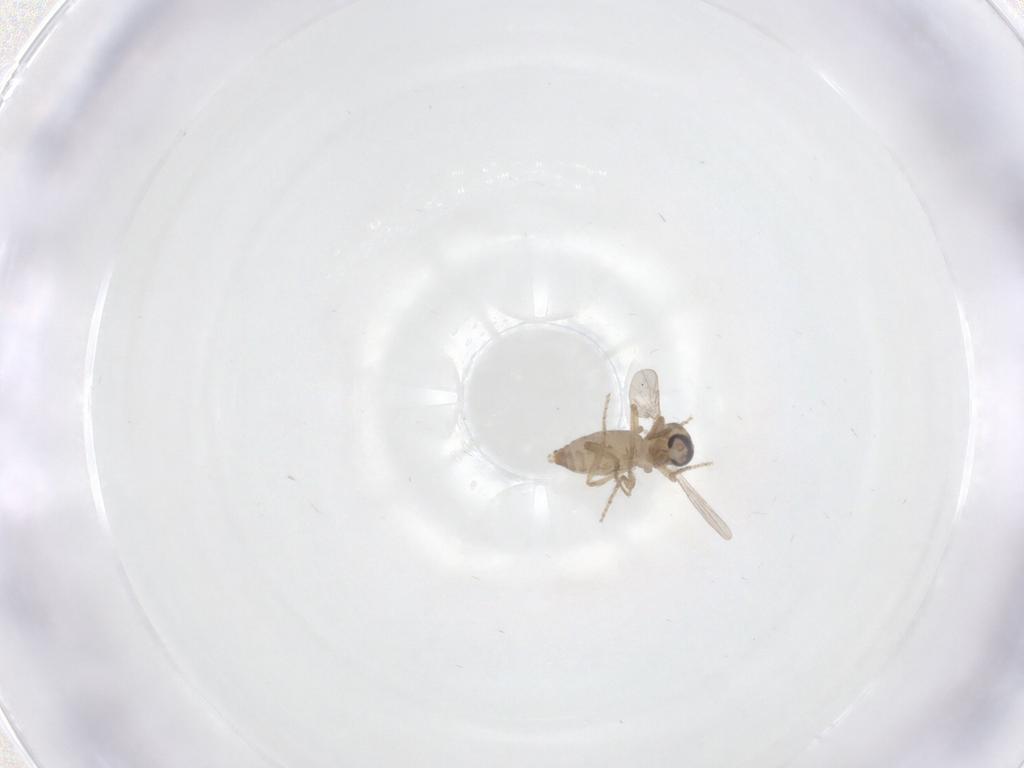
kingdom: Animalia
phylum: Arthropoda
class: Insecta
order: Diptera
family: Ceratopogonidae
